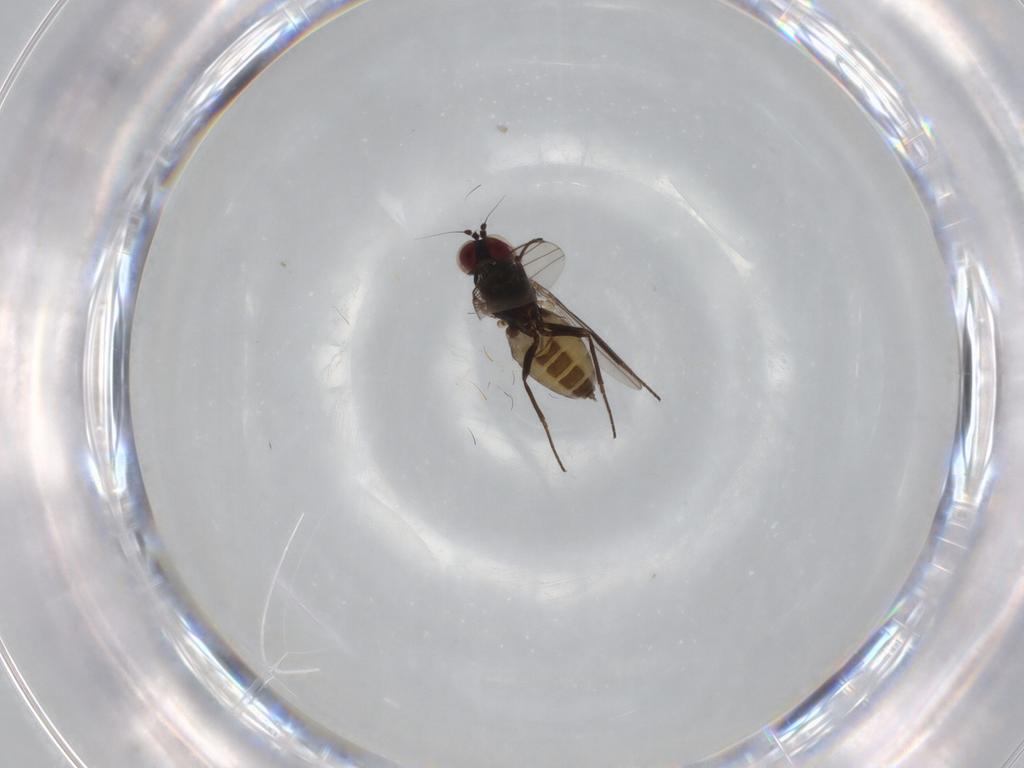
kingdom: Animalia
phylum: Arthropoda
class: Insecta
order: Diptera
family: Dolichopodidae
